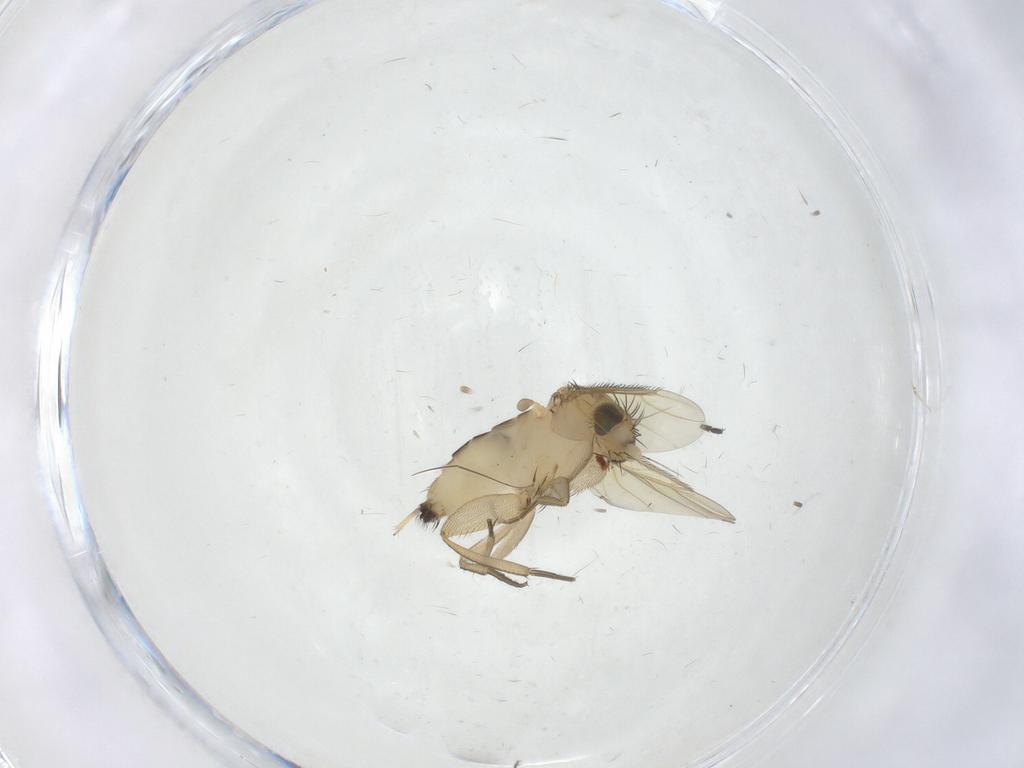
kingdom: Animalia
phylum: Arthropoda
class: Insecta
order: Diptera
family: Phoridae
